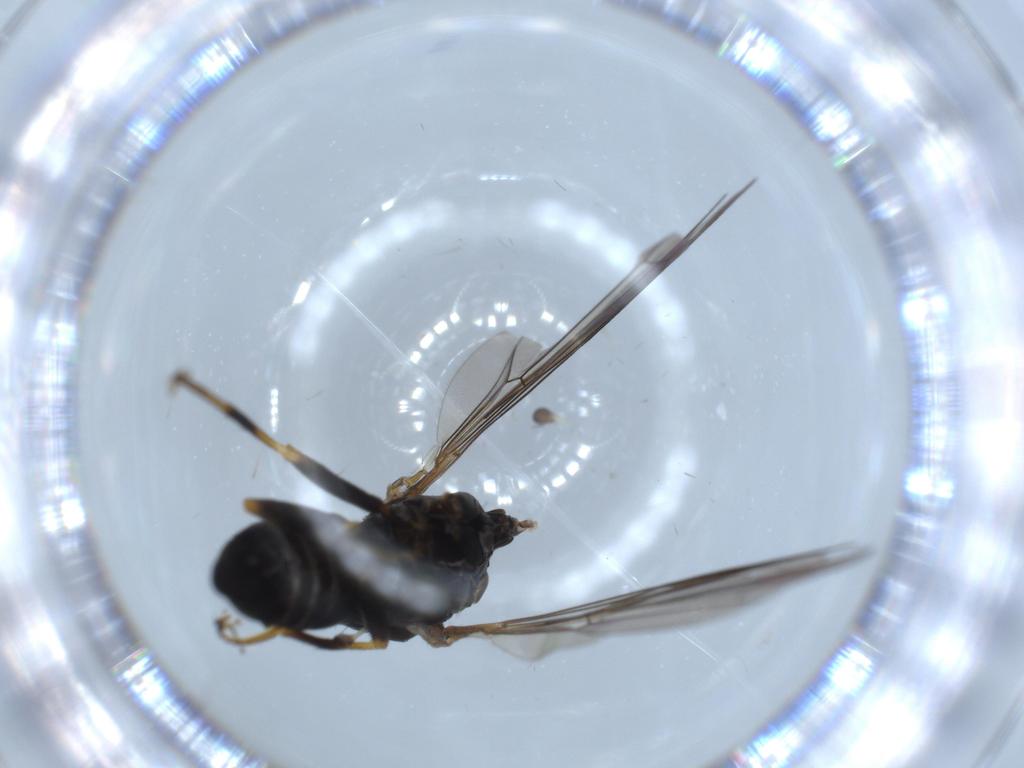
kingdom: Animalia
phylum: Arthropoda
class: Insecta
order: Diptera
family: Pipunculidae
